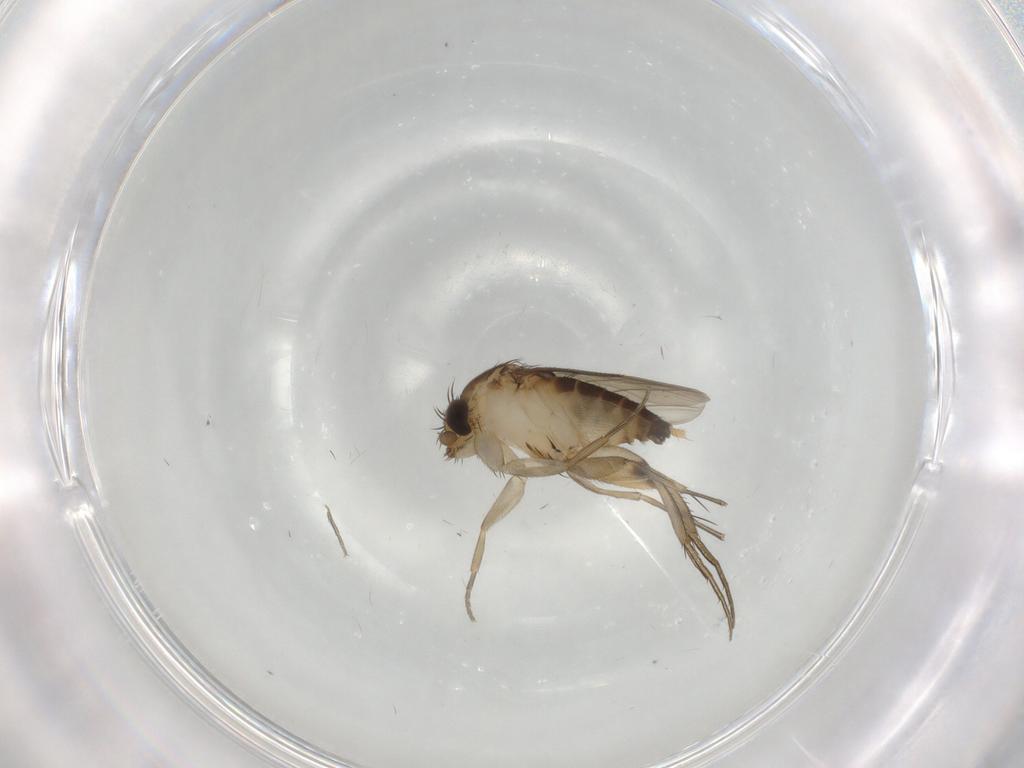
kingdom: Animalia
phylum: Arthropoda
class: Insecta
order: Diptera
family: Phoridae
